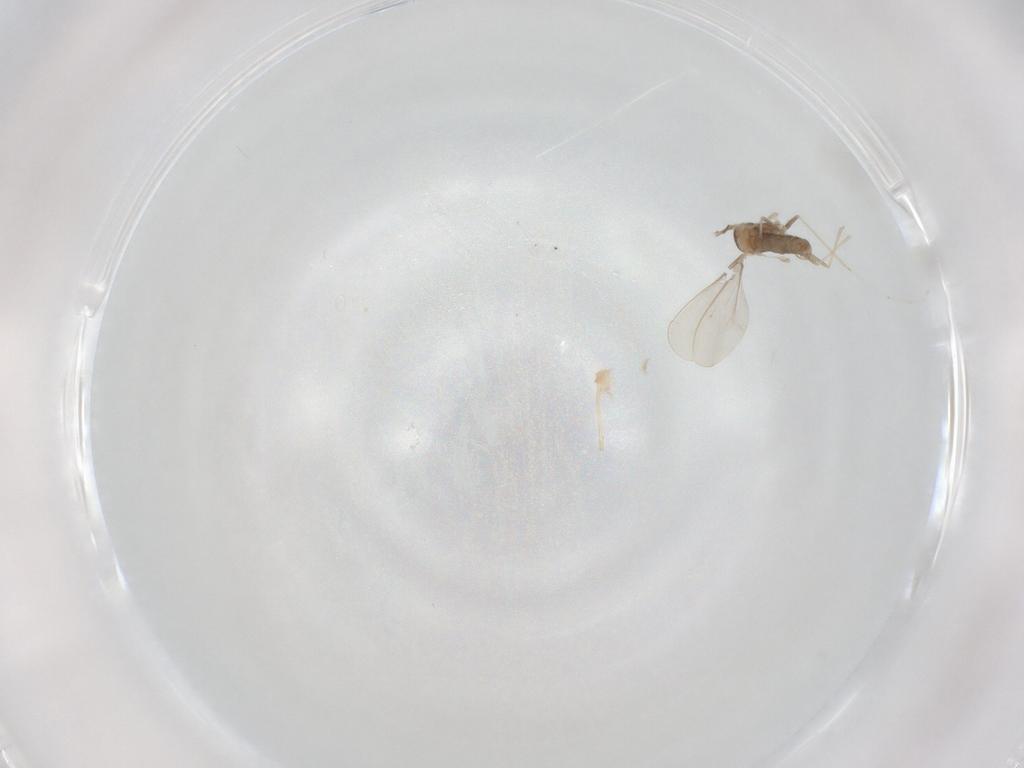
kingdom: Animalia
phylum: Arthropoda
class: Insecta
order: Diptera
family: Cecidomyiidae
